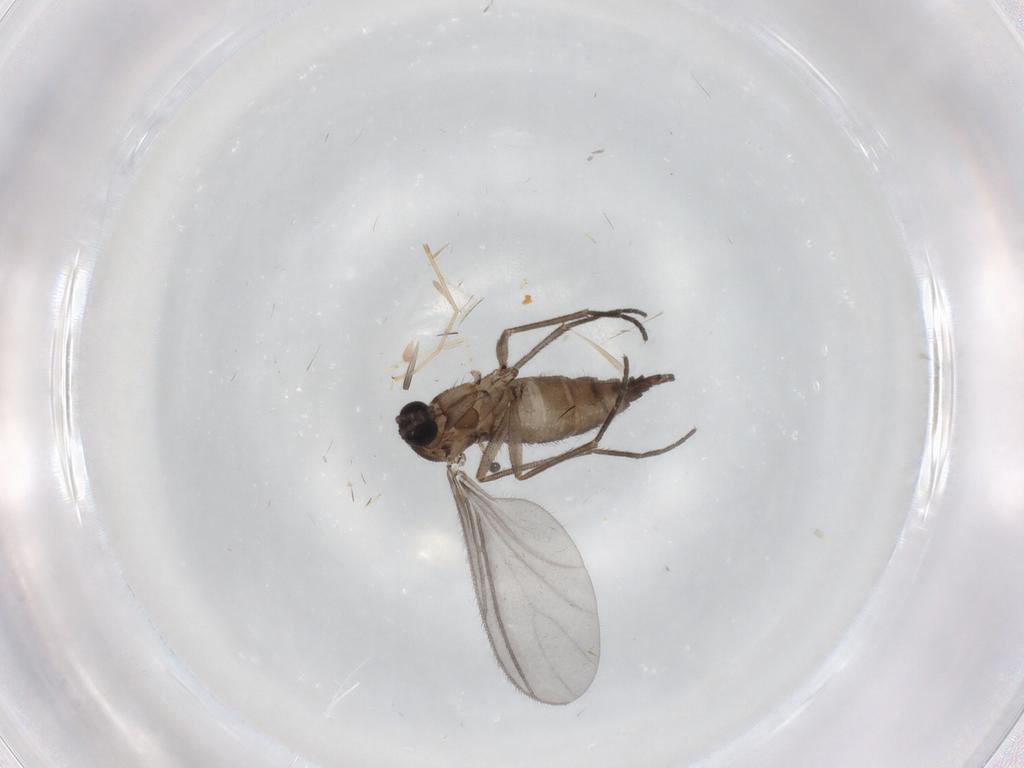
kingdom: Animalia
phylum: Arthropoda
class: Insecta
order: Diptera
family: Sciaridae
